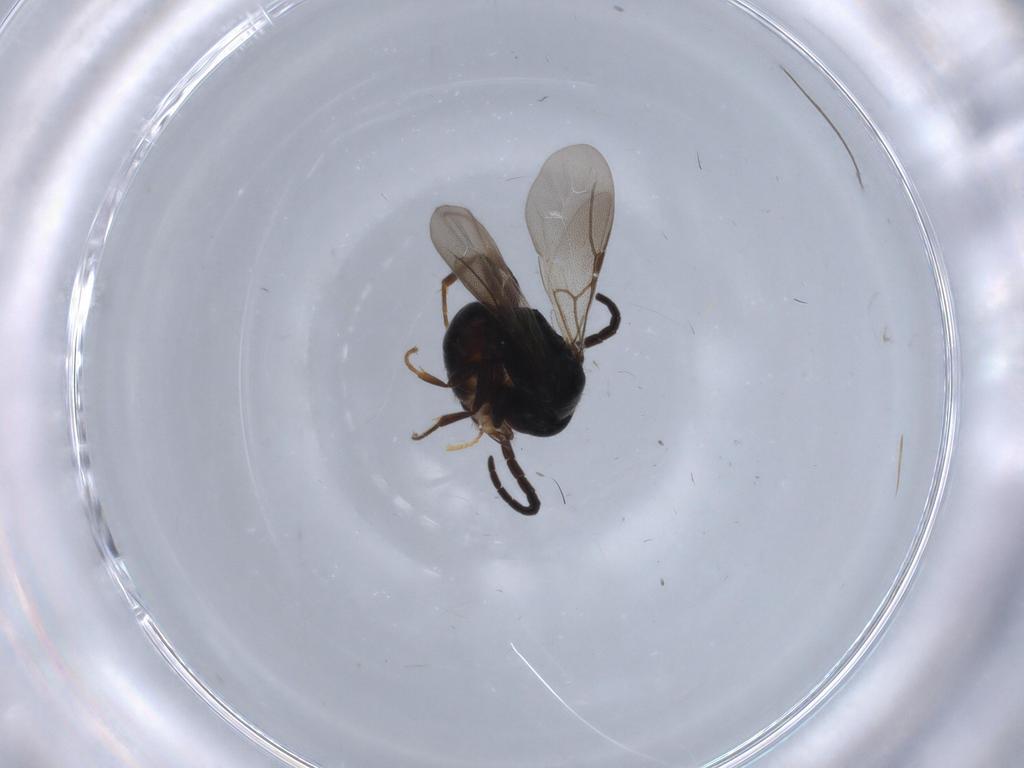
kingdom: Animalia
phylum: Arthropoda
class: Insecta
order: Hymenoptera
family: Bethylidae
